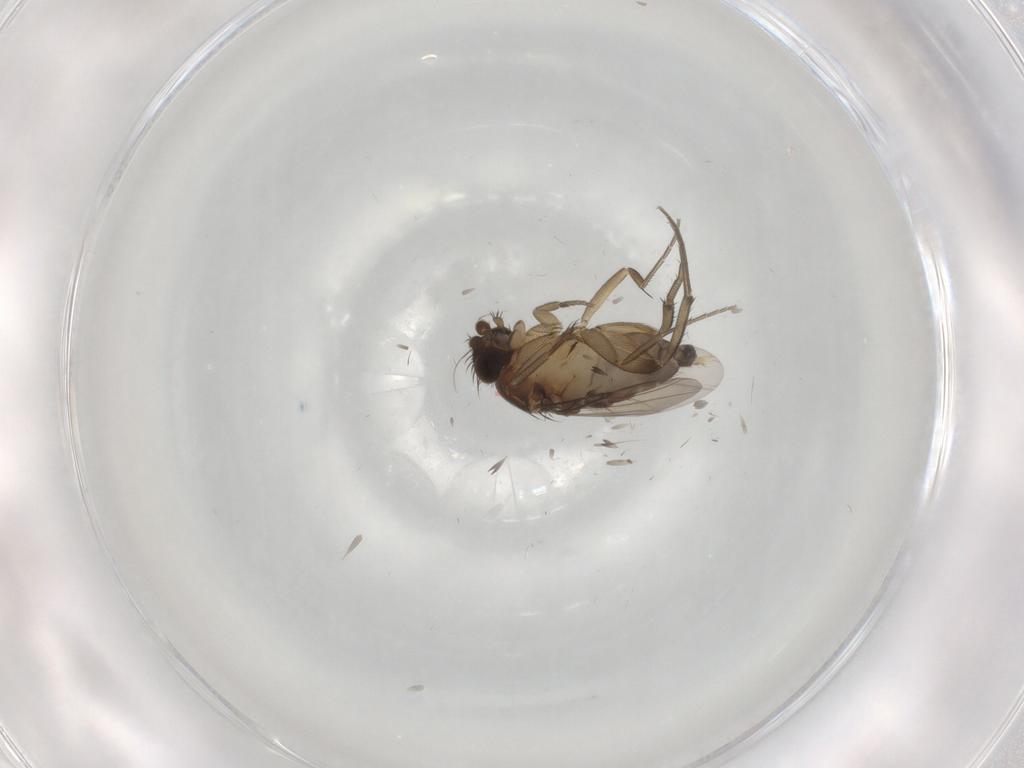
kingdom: Animalia
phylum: Arthropoda
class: Insecta
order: Diptera
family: Phoridae
